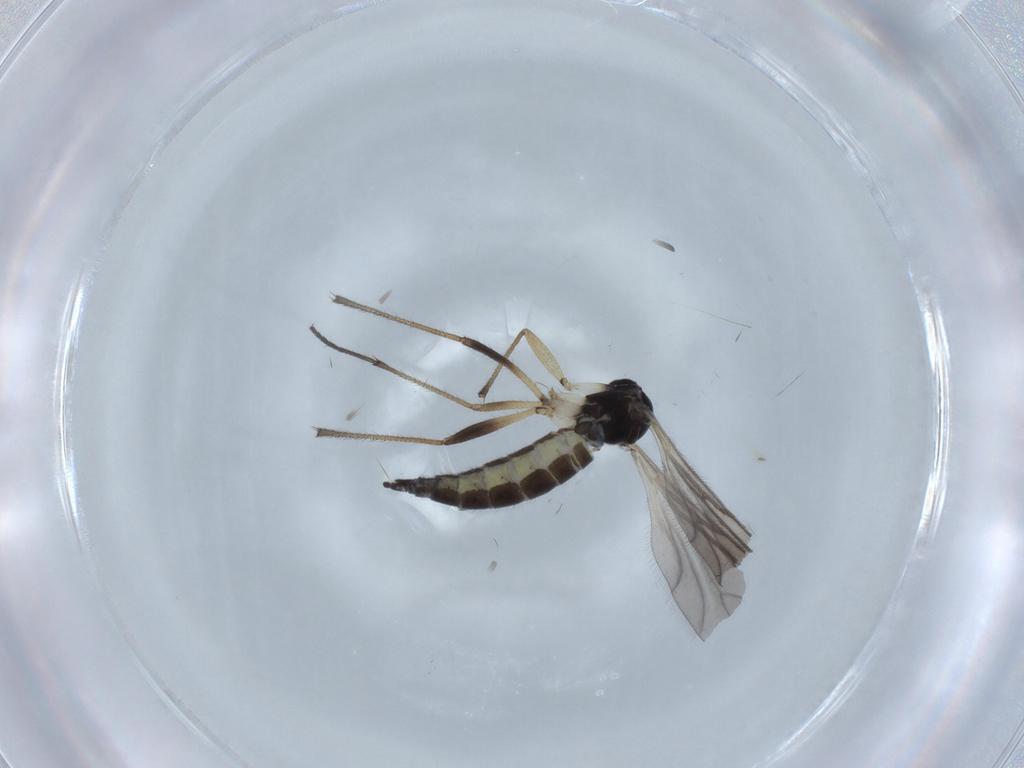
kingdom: Animalia
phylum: Arthropoda
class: Insecta
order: Diptera
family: Sciaridae
